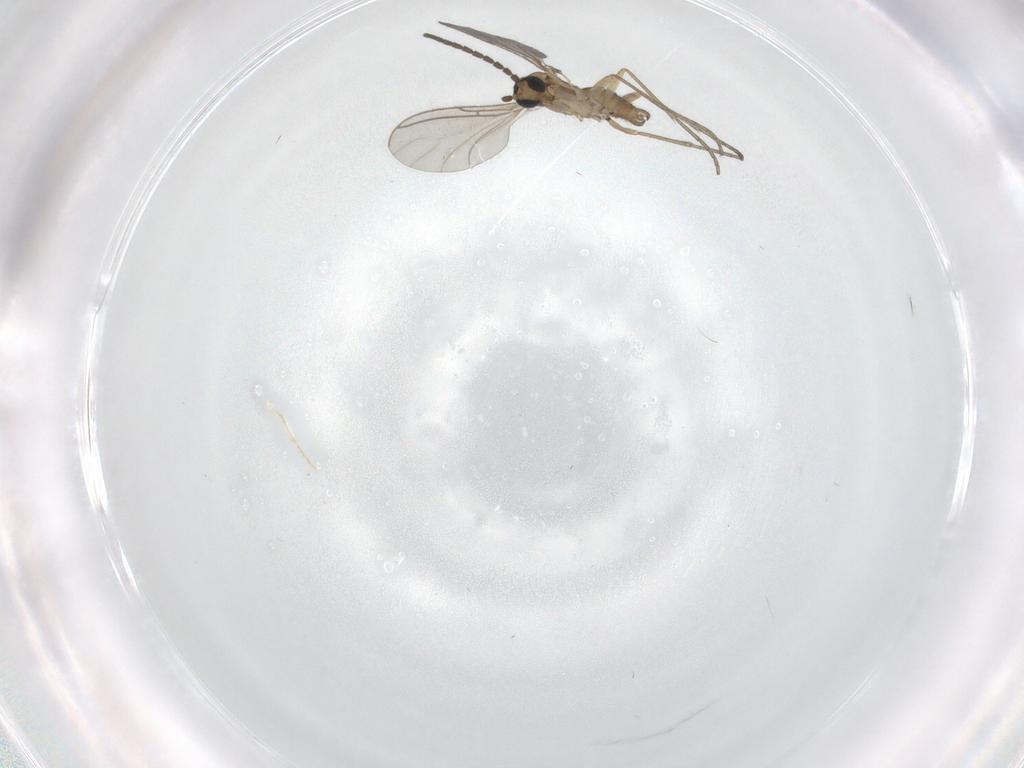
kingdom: Animalia
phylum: Arthropoda
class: Insecta
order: Diptera
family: Sciaridae
